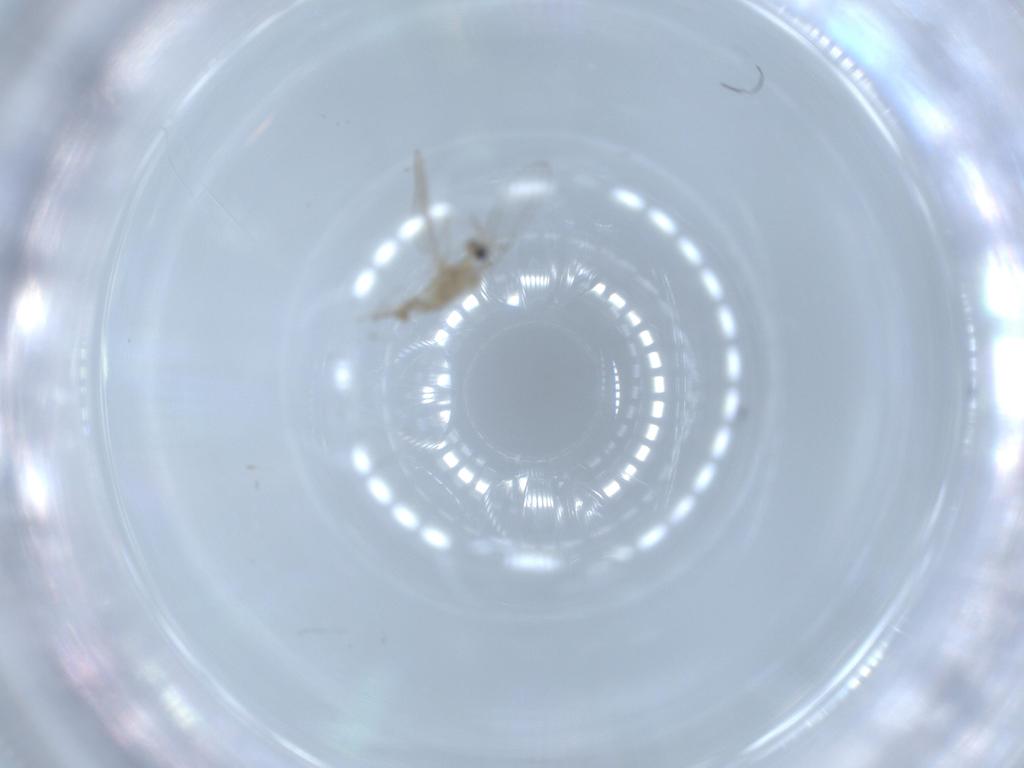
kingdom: Animalia
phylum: Arthropoda
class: Insecta
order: Diptera
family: Cecidomyiidae
